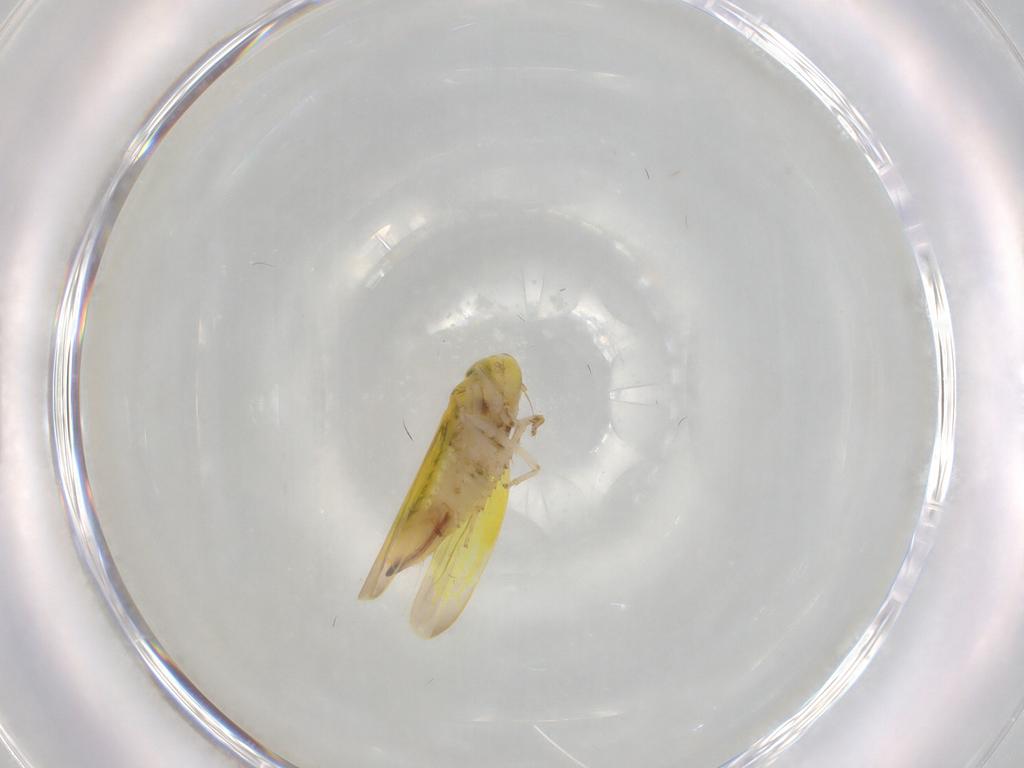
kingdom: Animalia
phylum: Arthropoda
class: Insecta
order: Hemiptera
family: Cicadellidae
